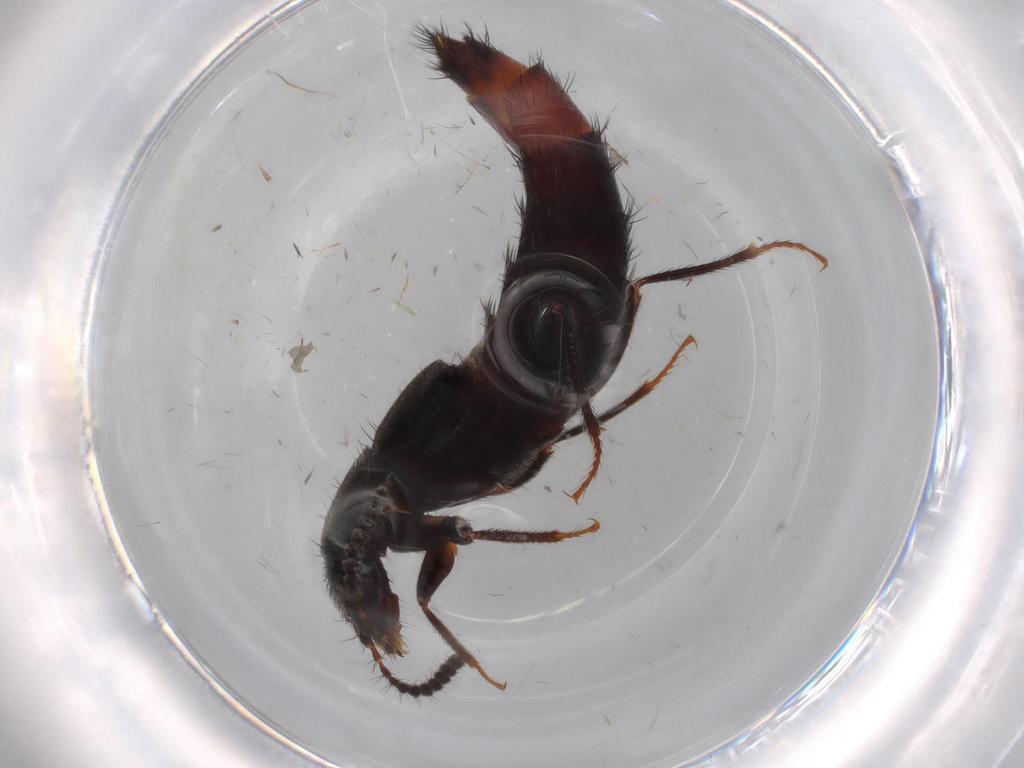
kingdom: Animalia
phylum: Arthropoda
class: Insecta
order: Coleoptera
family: Staphylinidae
